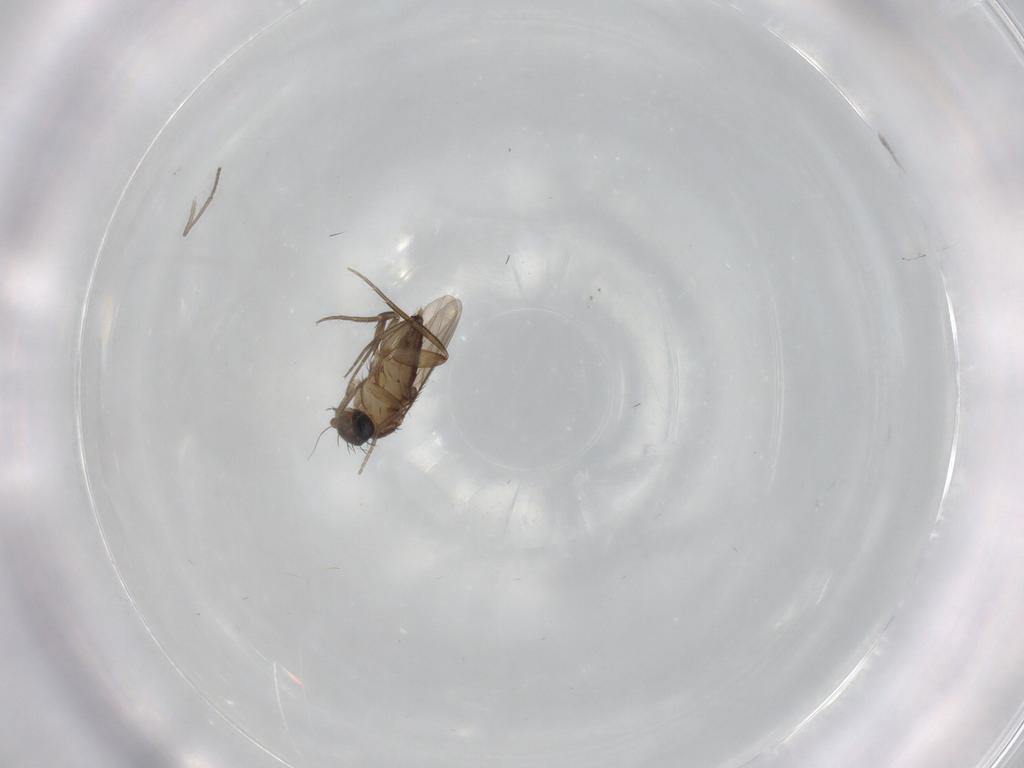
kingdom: Animalia
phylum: Arthropoda
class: Insecta
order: Diptera
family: Phoridae
